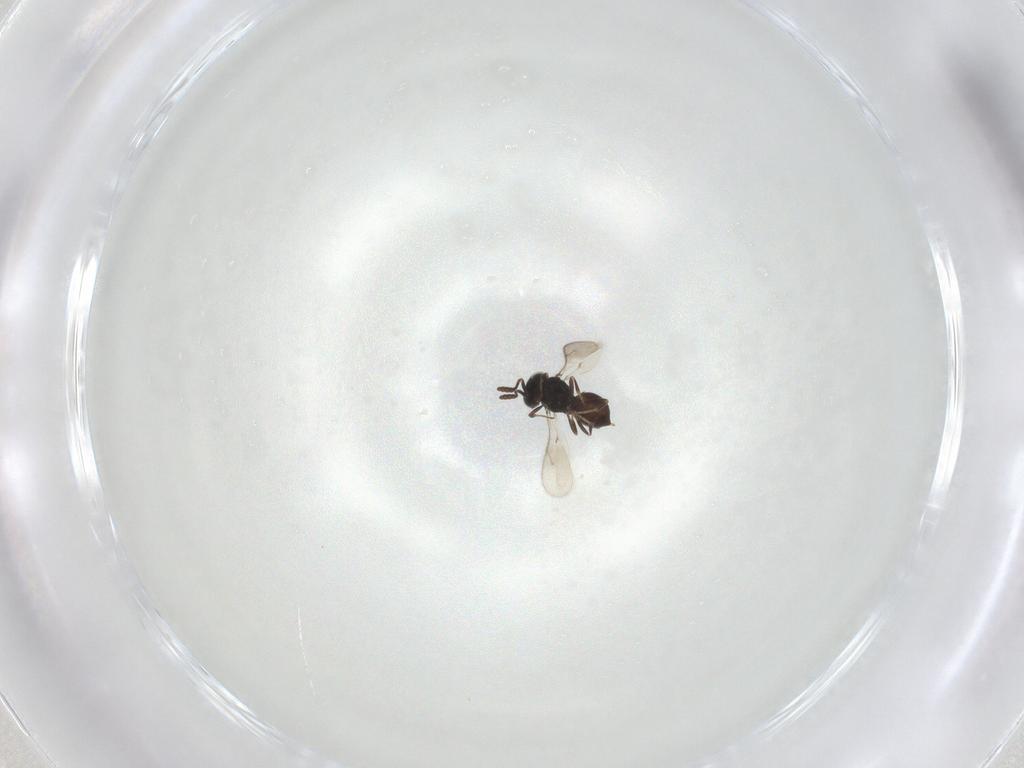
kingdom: Animalia
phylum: Arthropoda
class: Insecta
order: Hymenoptera
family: Scelionidae
